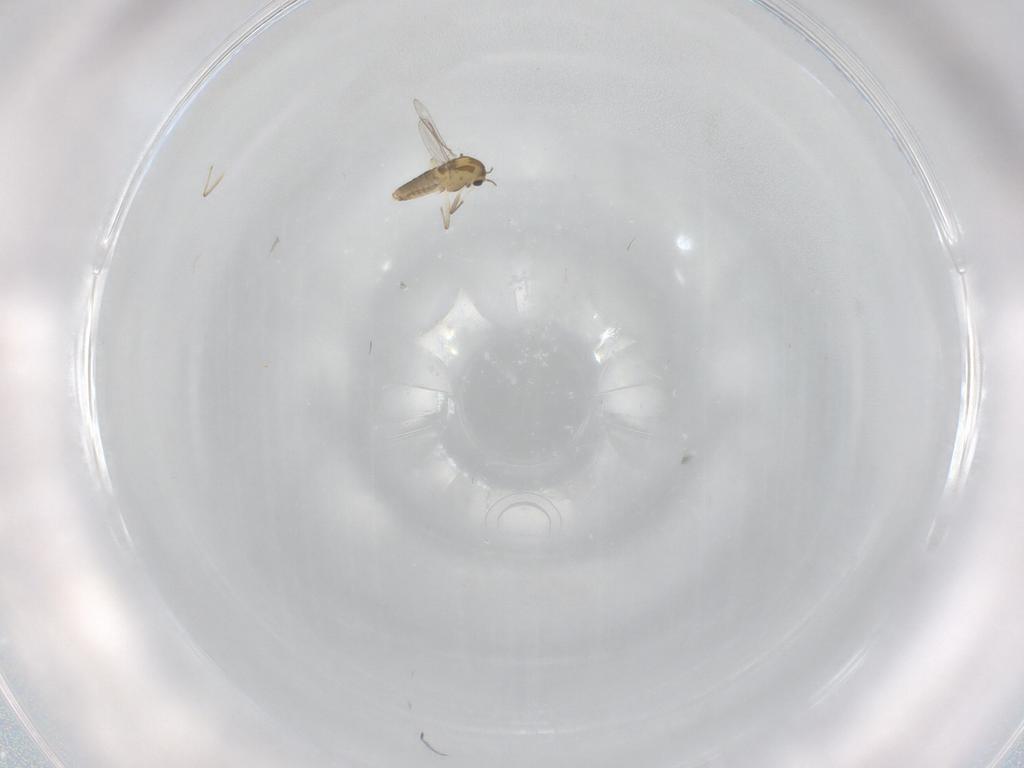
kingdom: Animalia
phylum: Arthropoda
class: Insecta
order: Diptera
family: Chironomidae
